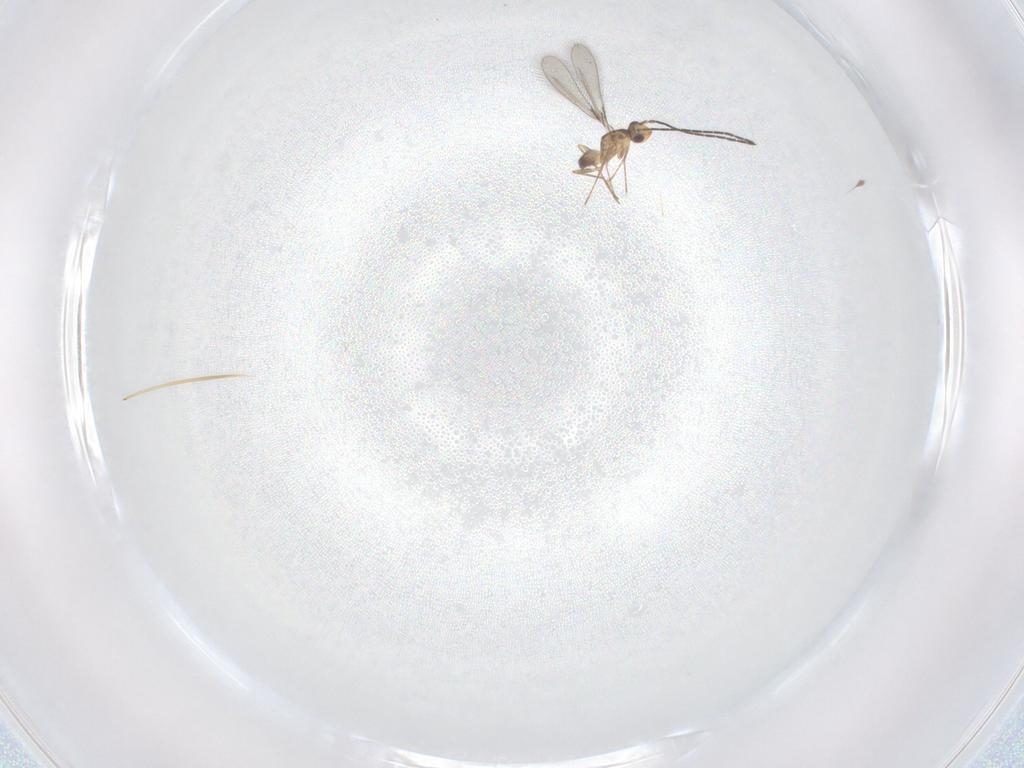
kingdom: Animalia
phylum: Arthropoda
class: Insecta
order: Hymenoptera
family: Mymaridae
